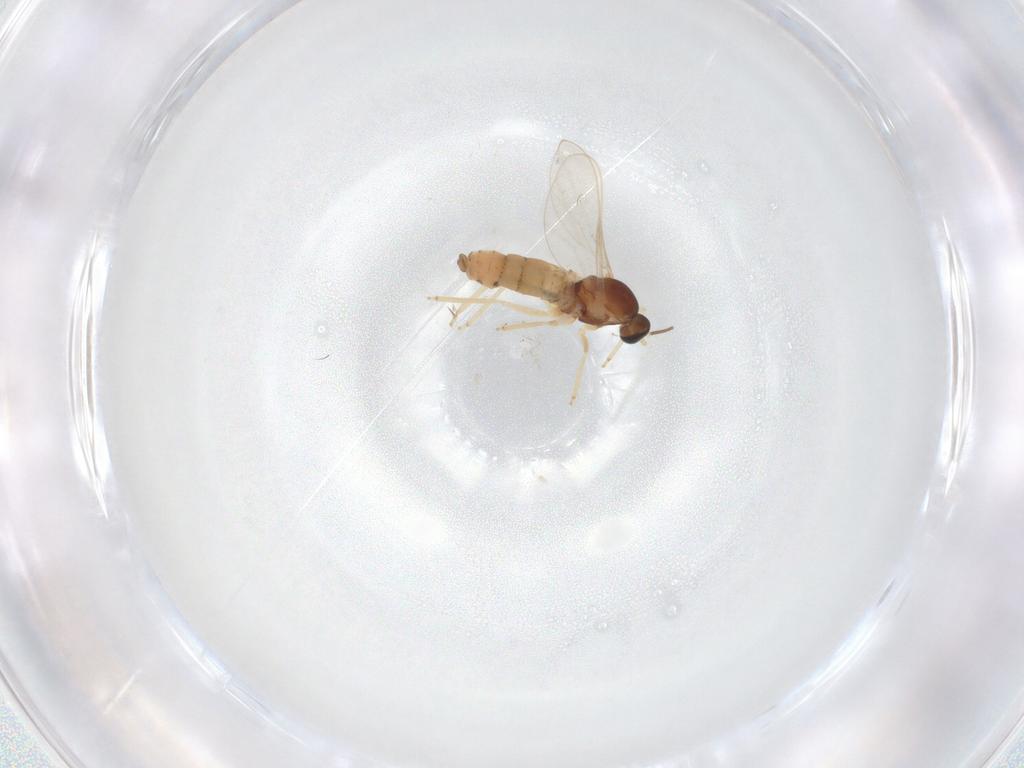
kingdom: Animalia
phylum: Arthropoda
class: Insecta
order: Diptera
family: Cecidomyiidae
